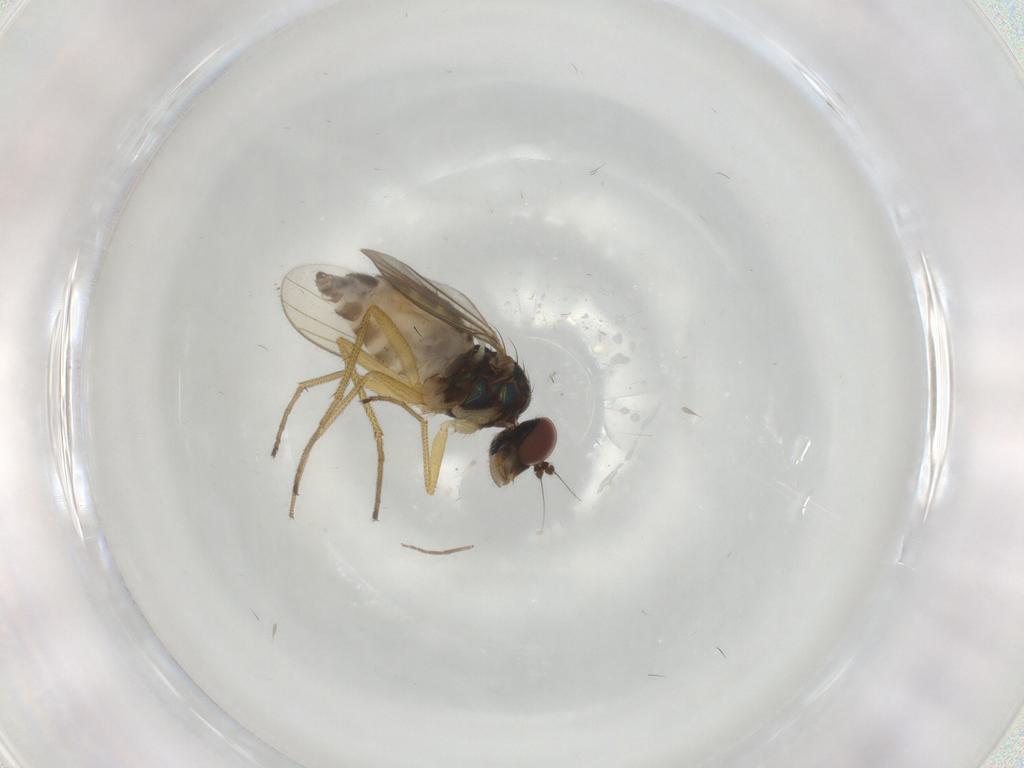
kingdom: Animalia
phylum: Arthropoda
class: Insecta
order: Diptera
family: Dolichopodidae
